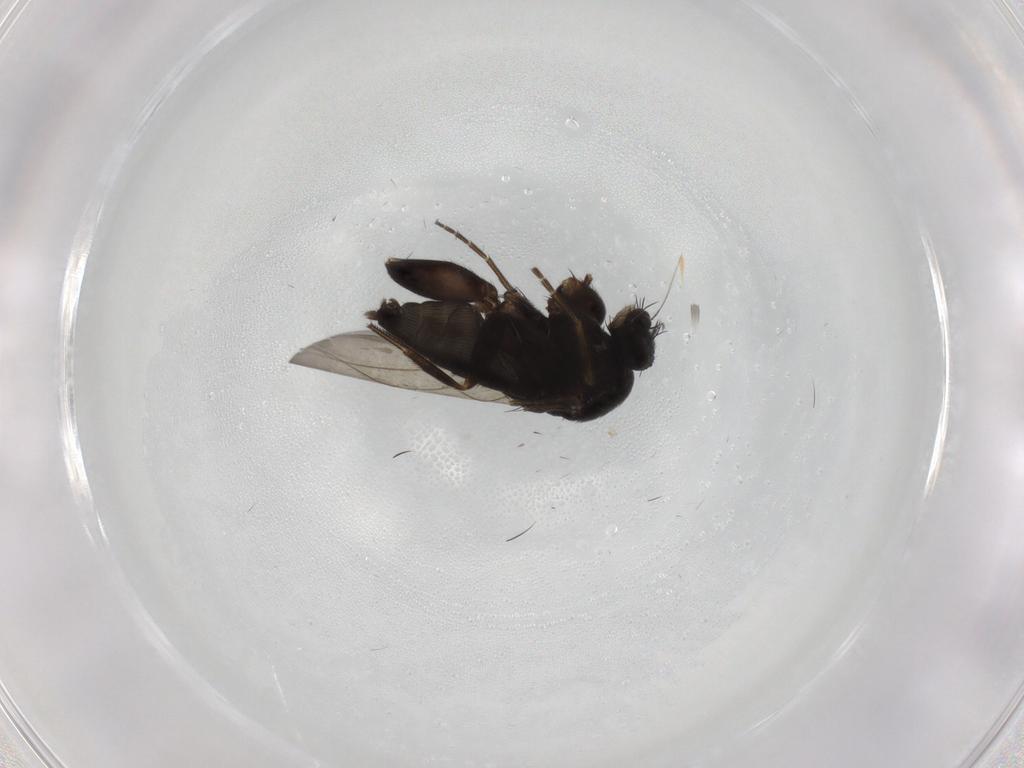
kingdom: Animalia
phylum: Arthropoda
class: Insecta
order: Diptera
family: Phoridae
